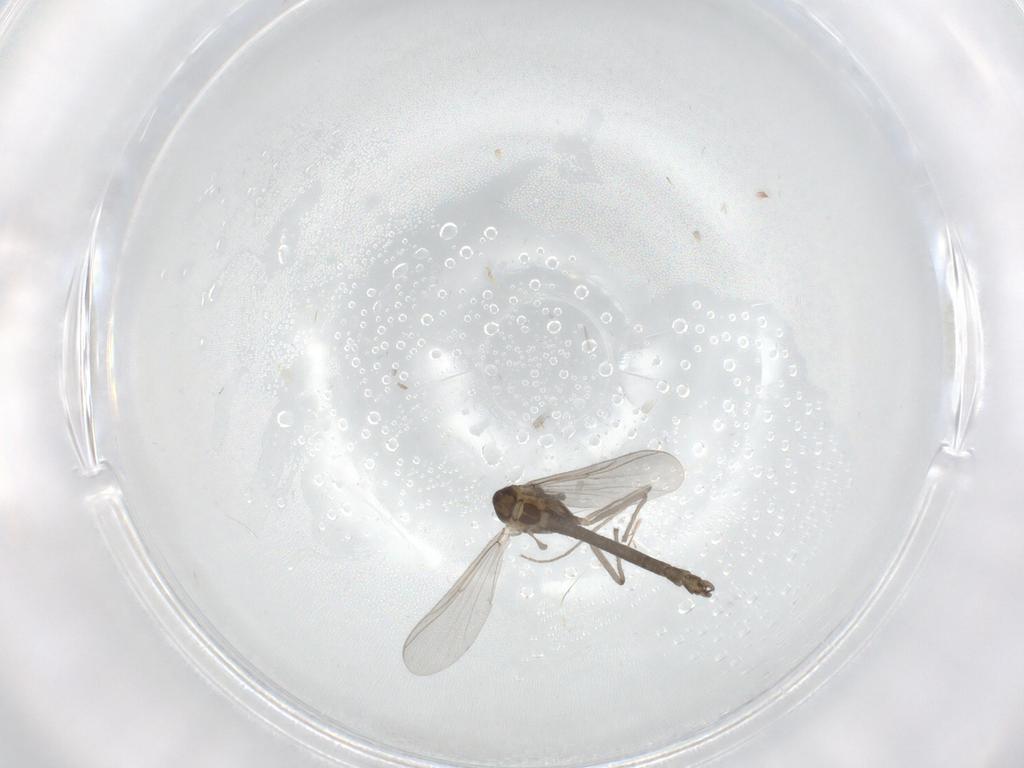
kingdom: Animalia
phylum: Arthropoda
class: Insecta
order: Diptera
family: Chironomidae
